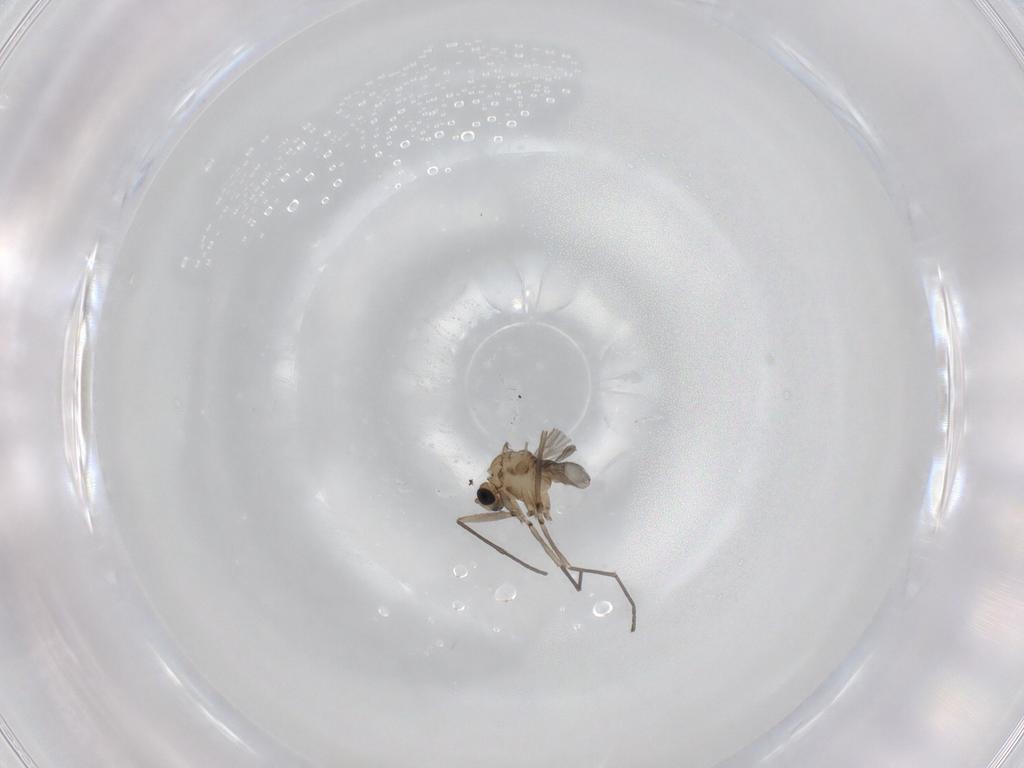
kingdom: Animalia
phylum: Arthropoda
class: Insecta
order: Diptera
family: Sciaridae
